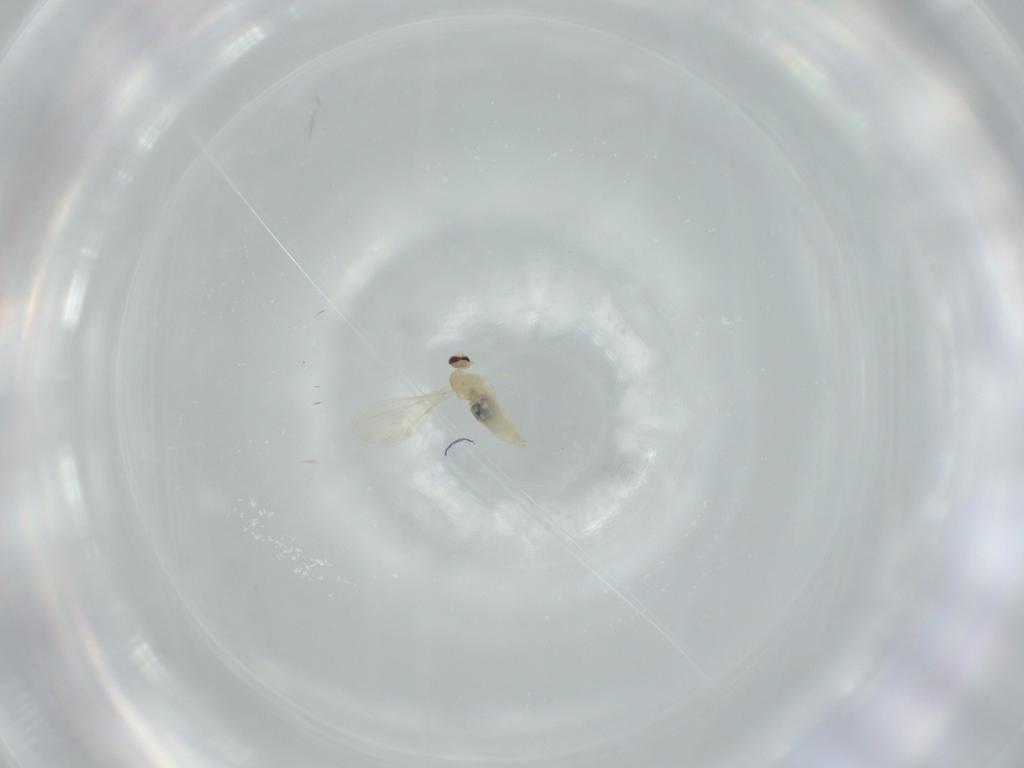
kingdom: Animalia
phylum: Arthropoda
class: Insecta
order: Diptera
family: Cecidomyiidae
